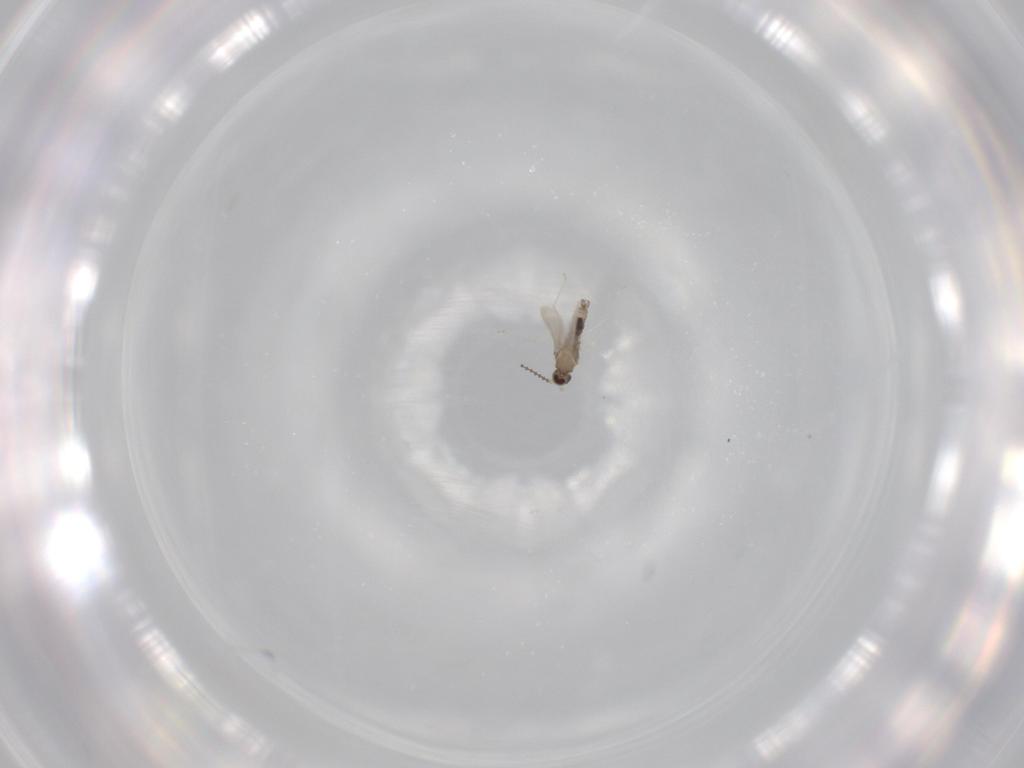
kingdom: Animalia
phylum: Arthropoda
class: Insecta
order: Diptera
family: Cecidomyiidae
